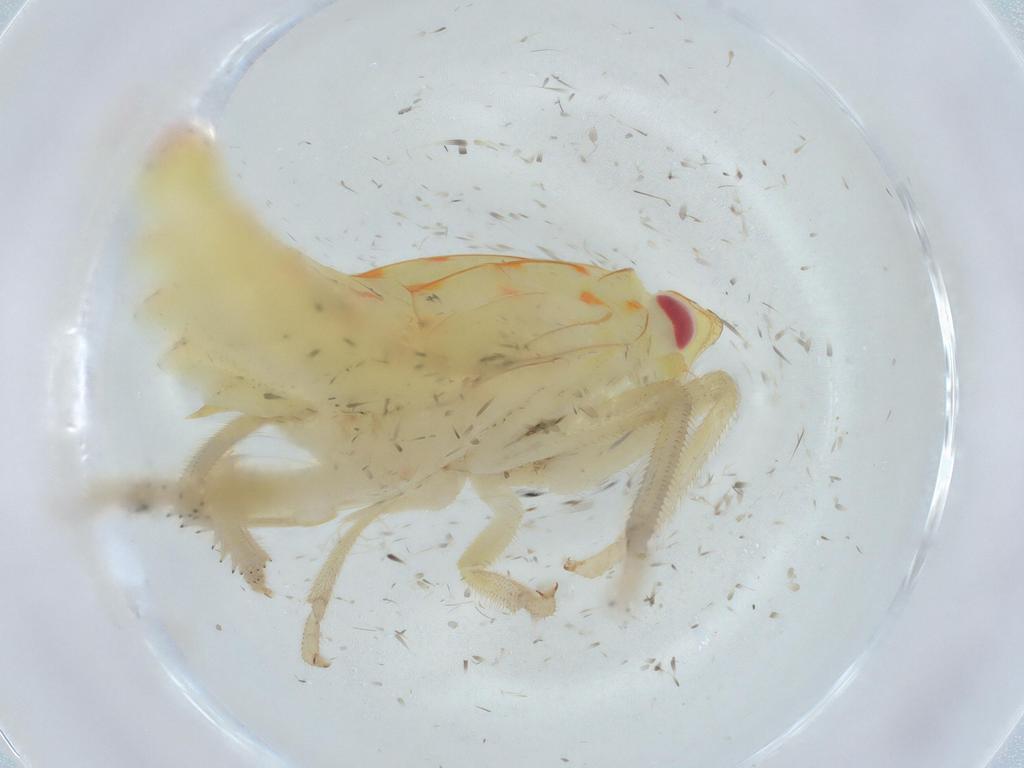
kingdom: Animalia
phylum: Arthropoda
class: Insecta
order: Hemiptera
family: Tropiduchidae
